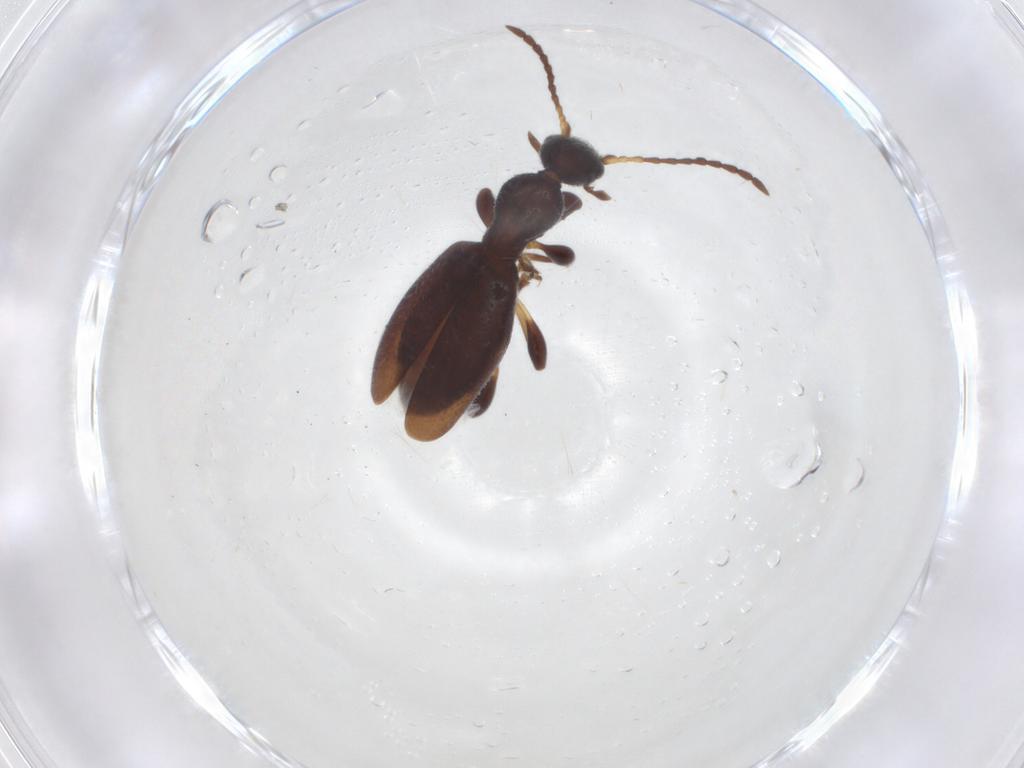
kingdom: Animalia
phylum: Arthropoda
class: Insecta
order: Coleoptera
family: Anthicidae
